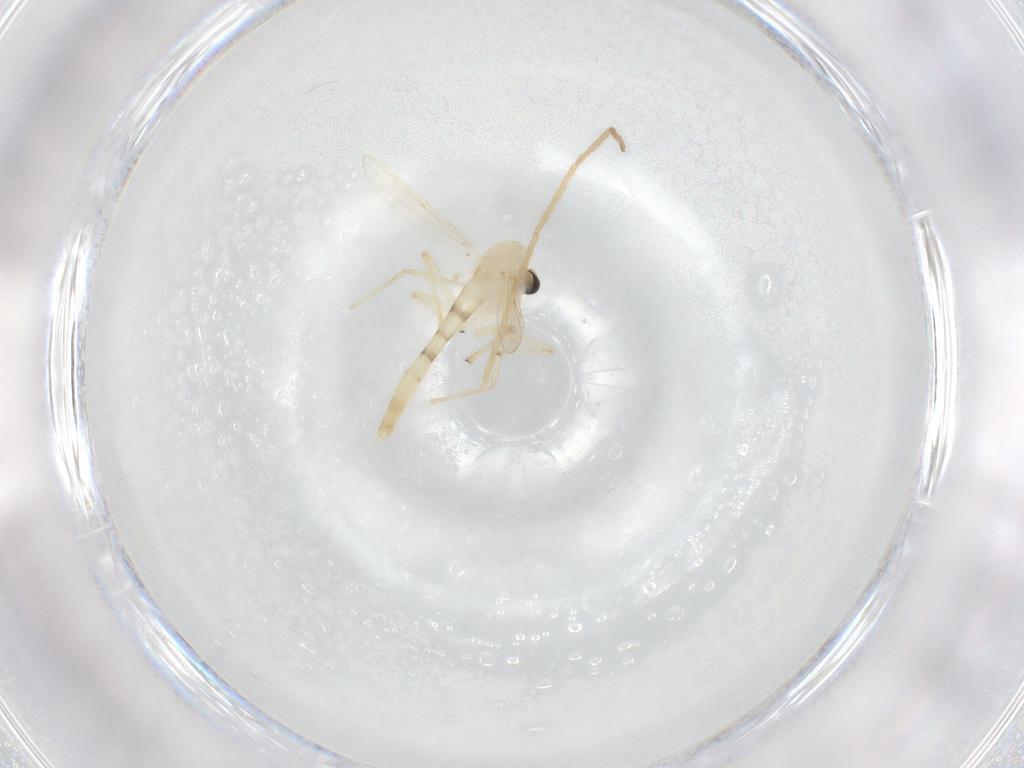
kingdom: Animalia
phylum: Arthropoda
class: Insecta
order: Diptera
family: Chironomidae
